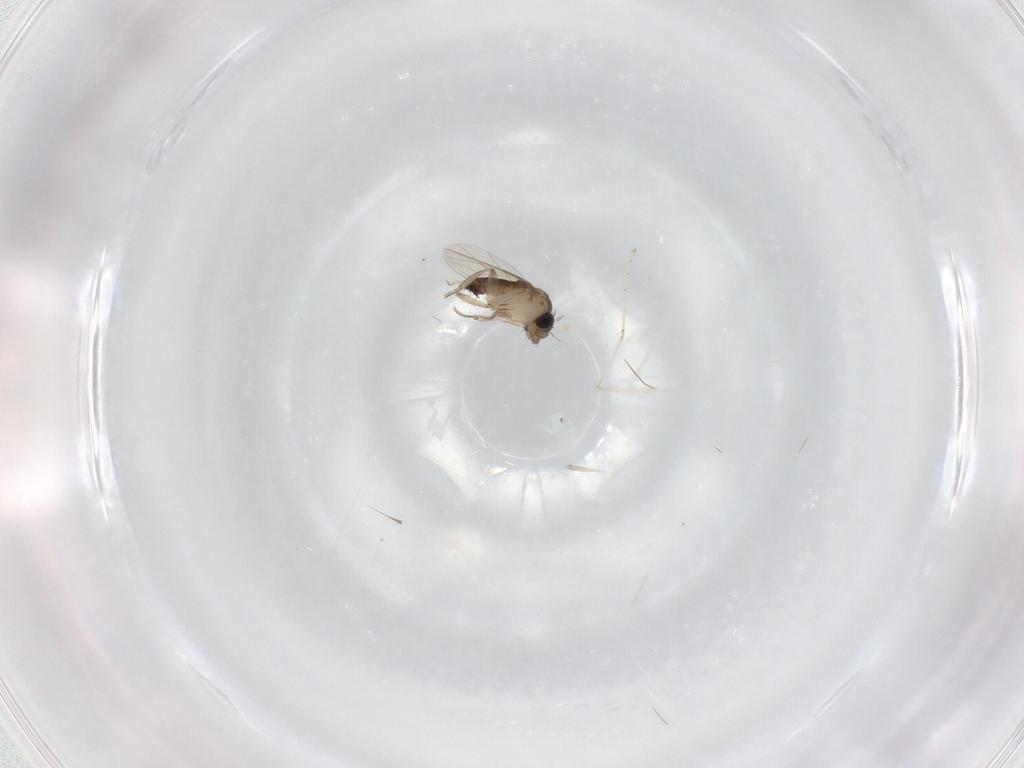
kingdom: Animalia
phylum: Arthropoda
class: Insecta
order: Diptera
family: Phoridae
